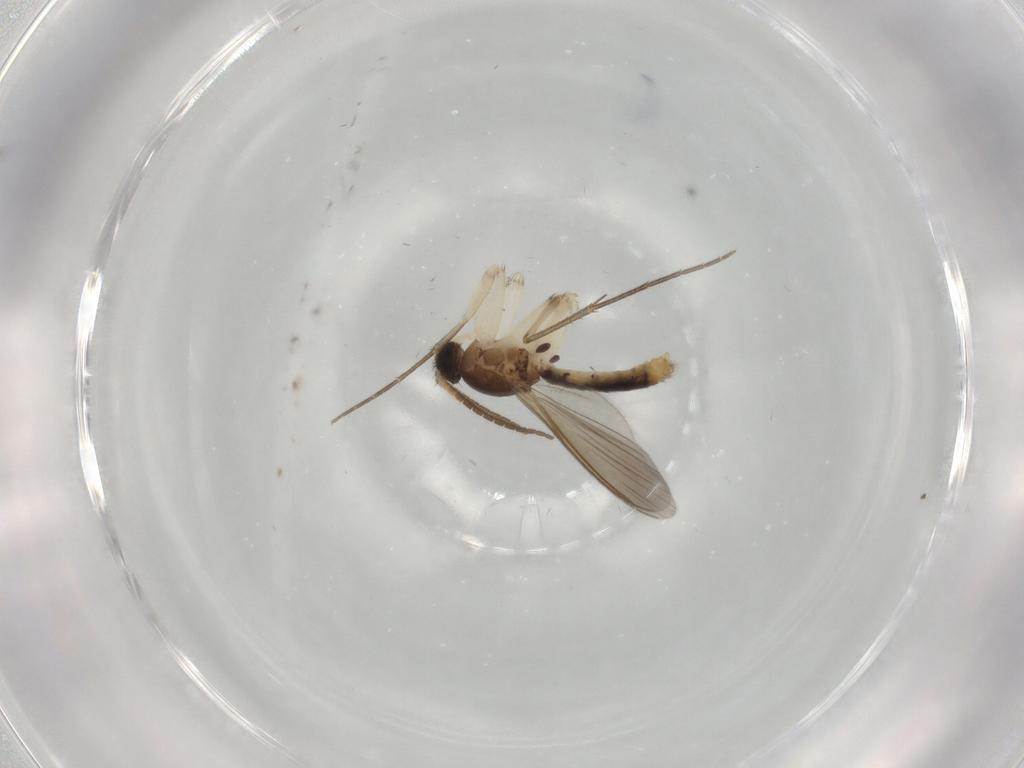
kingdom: Animalia
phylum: Arthropoda
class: Insecta
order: Diptera
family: Mycetophilidae
